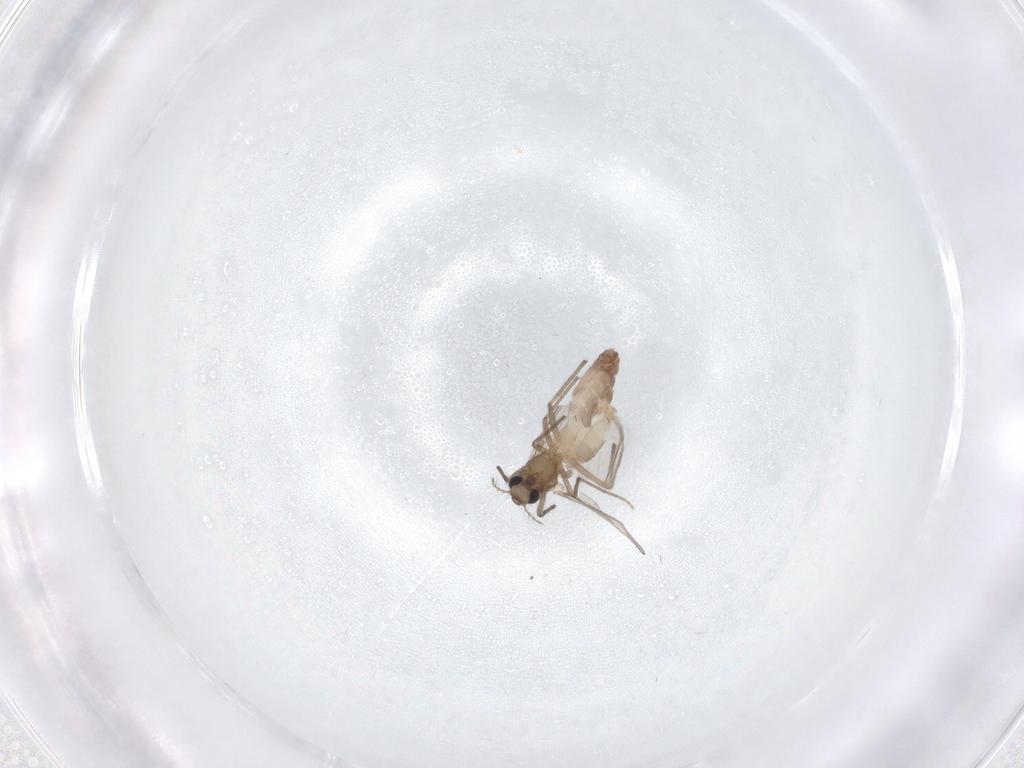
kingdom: Animalia
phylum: Arthropoda
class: Insecta
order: Diptera
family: Chironomidae
